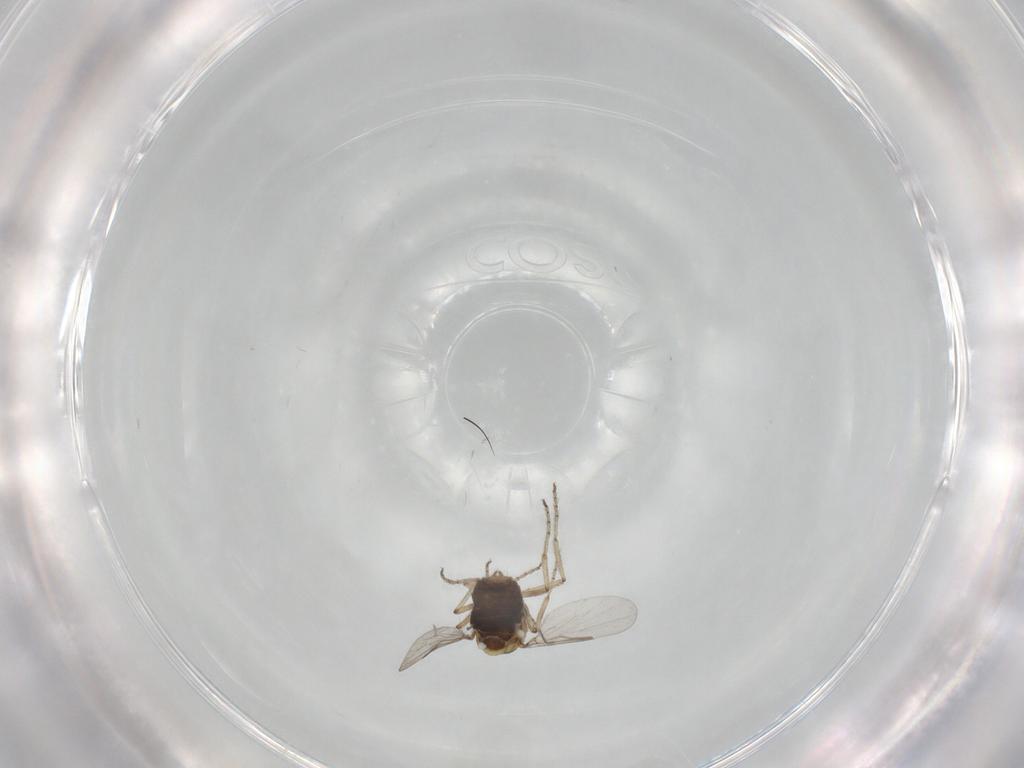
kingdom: Animalia
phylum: Arthropoda
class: Insecta
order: Diptera
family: Ceratopogonidae
